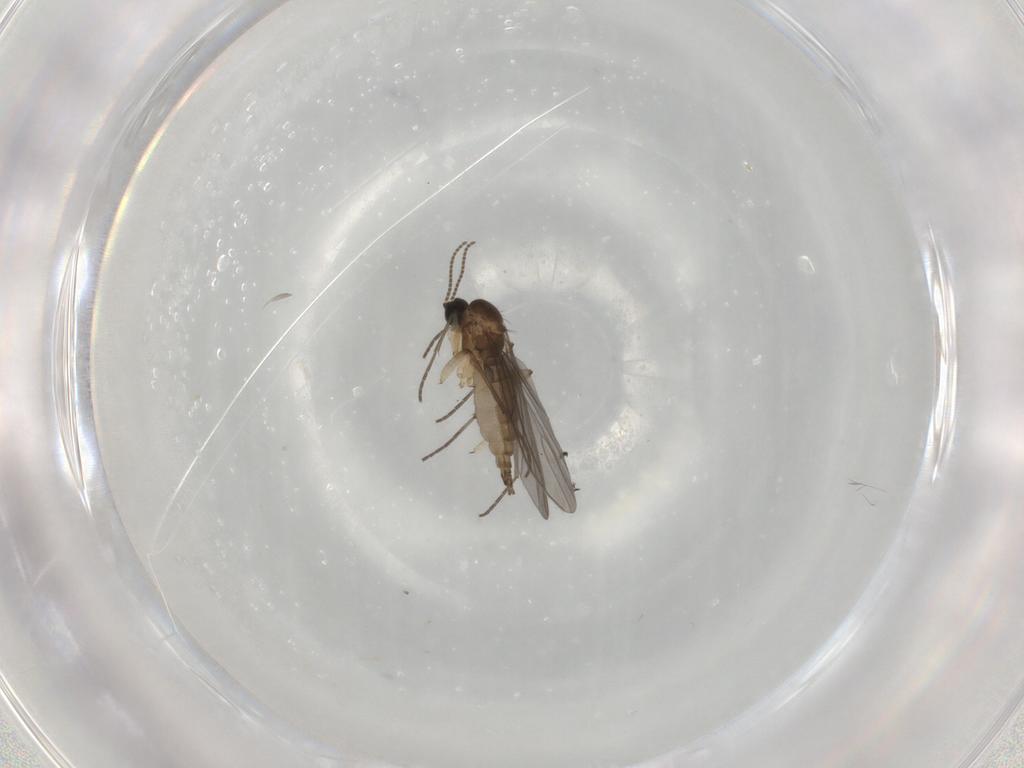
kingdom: Animalia
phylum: Arthropoda
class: Insecta
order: Diptera
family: Sciaridae
